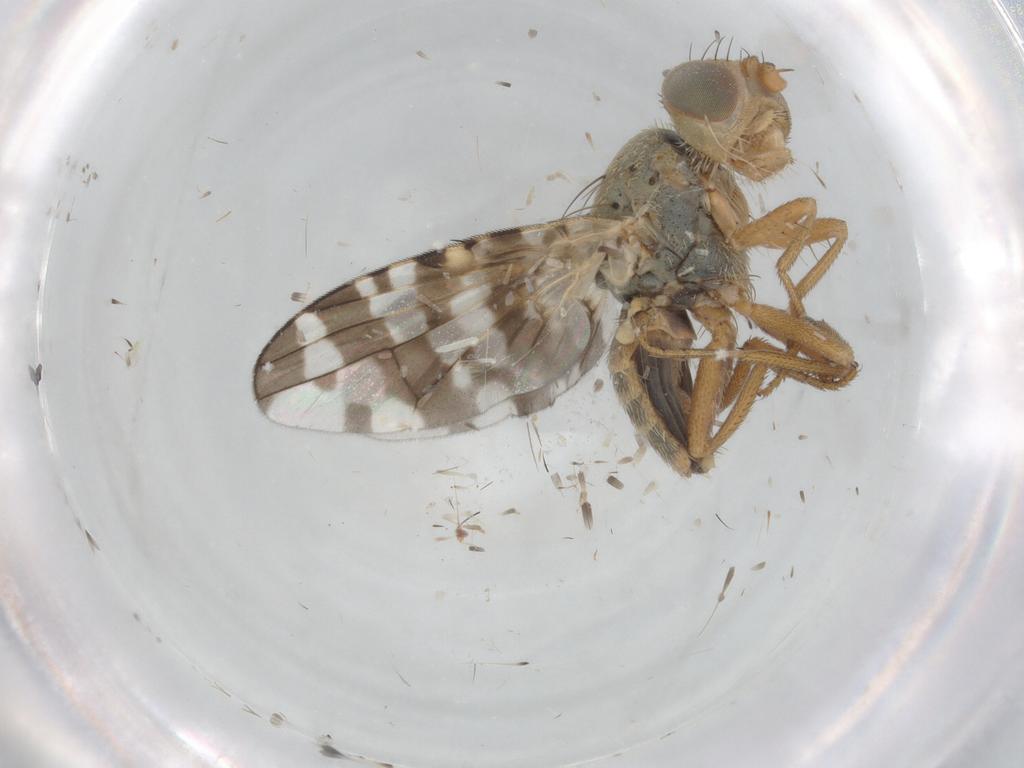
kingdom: Animalia
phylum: Arthropoda
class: Insecta
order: Diptera
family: Tephritidae
